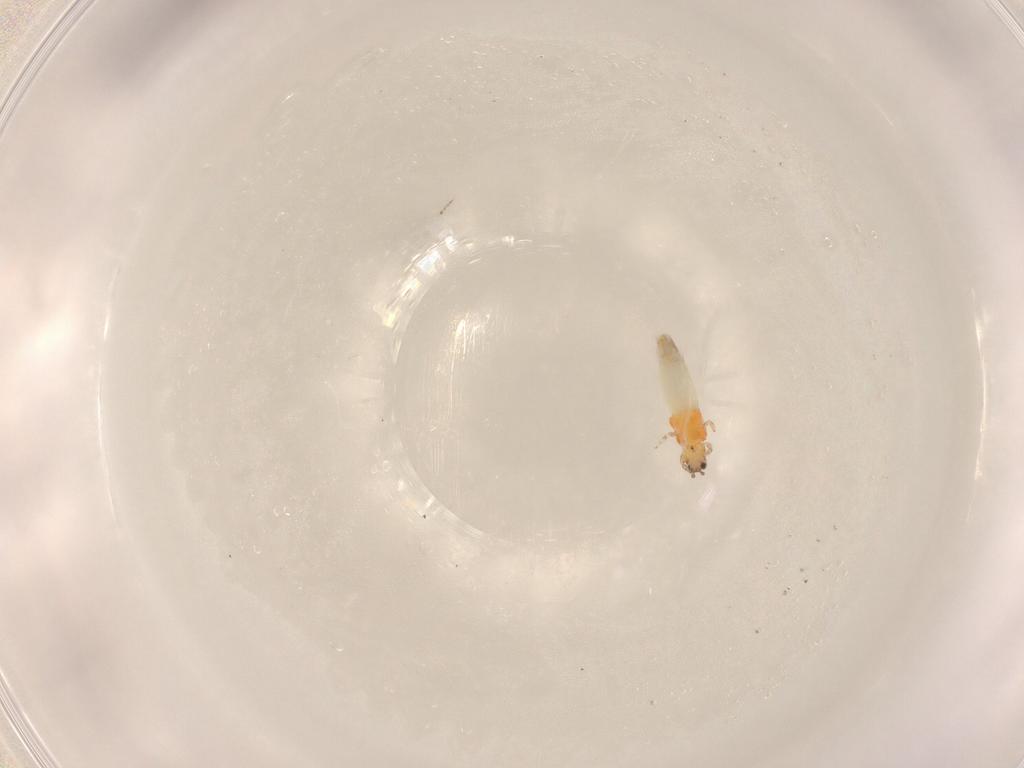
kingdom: Animalia
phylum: Arthropoda
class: Insecta
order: Thysanoptera
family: Thripidae
